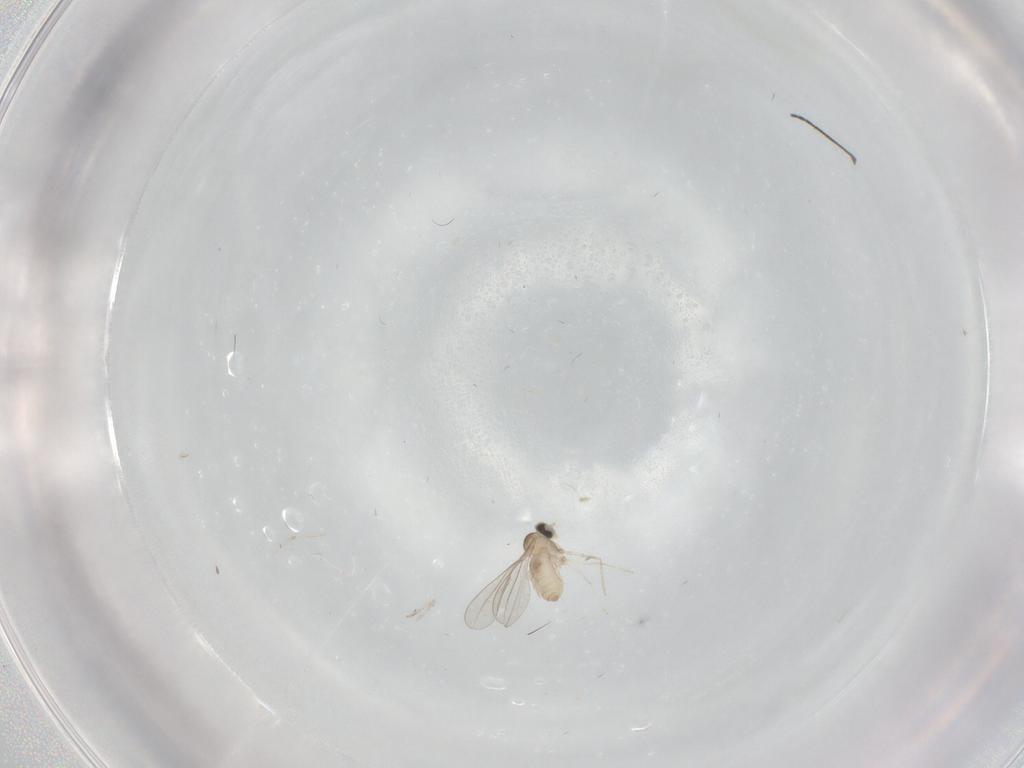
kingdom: Animalia
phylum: Arthropoda
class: Insecta
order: Diptera
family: Cecidomyiidae
